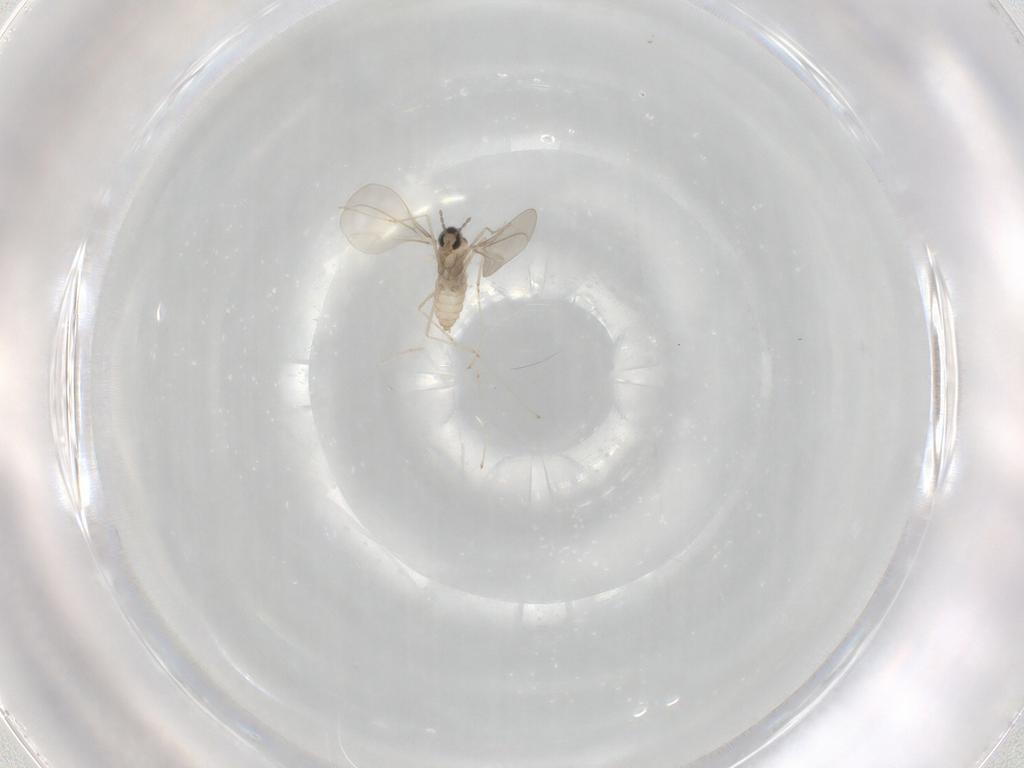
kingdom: Animalia
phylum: Arthropoda
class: Insecta
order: Diptera
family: Cecidomyiidae
